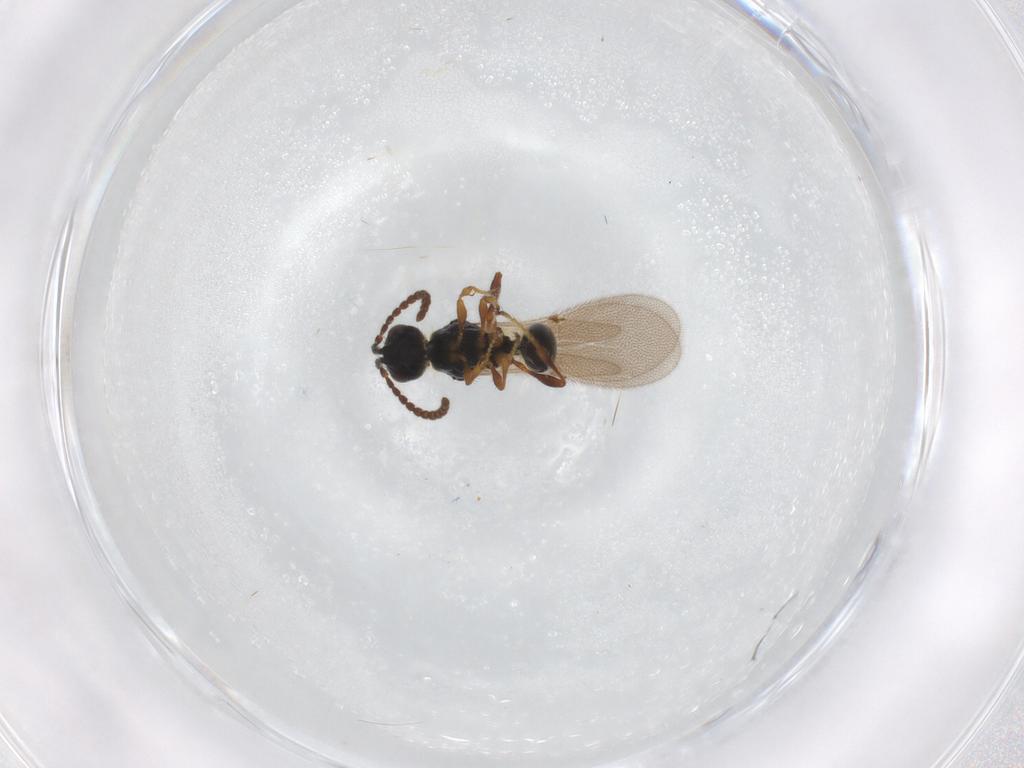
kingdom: Animalia
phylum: Arthropoda
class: Insecta
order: Hymenoptera
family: Diapriidae
